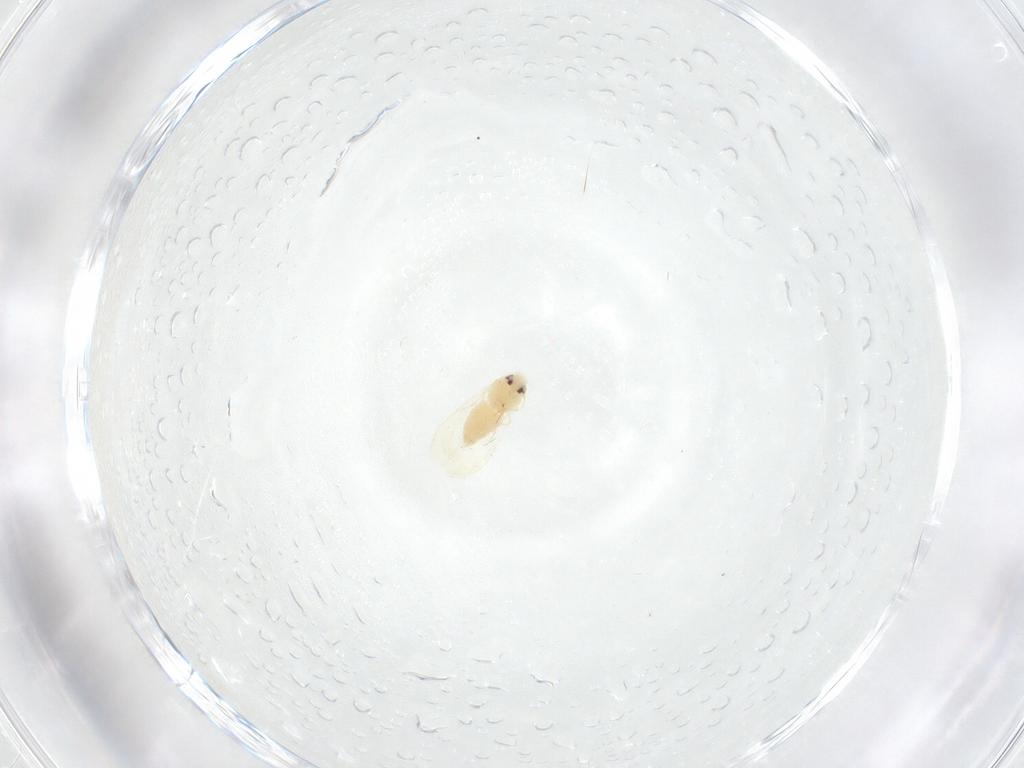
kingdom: Animalia
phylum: Arthropoda
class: Insecta
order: Hemiptera
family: Aleyrodidae
